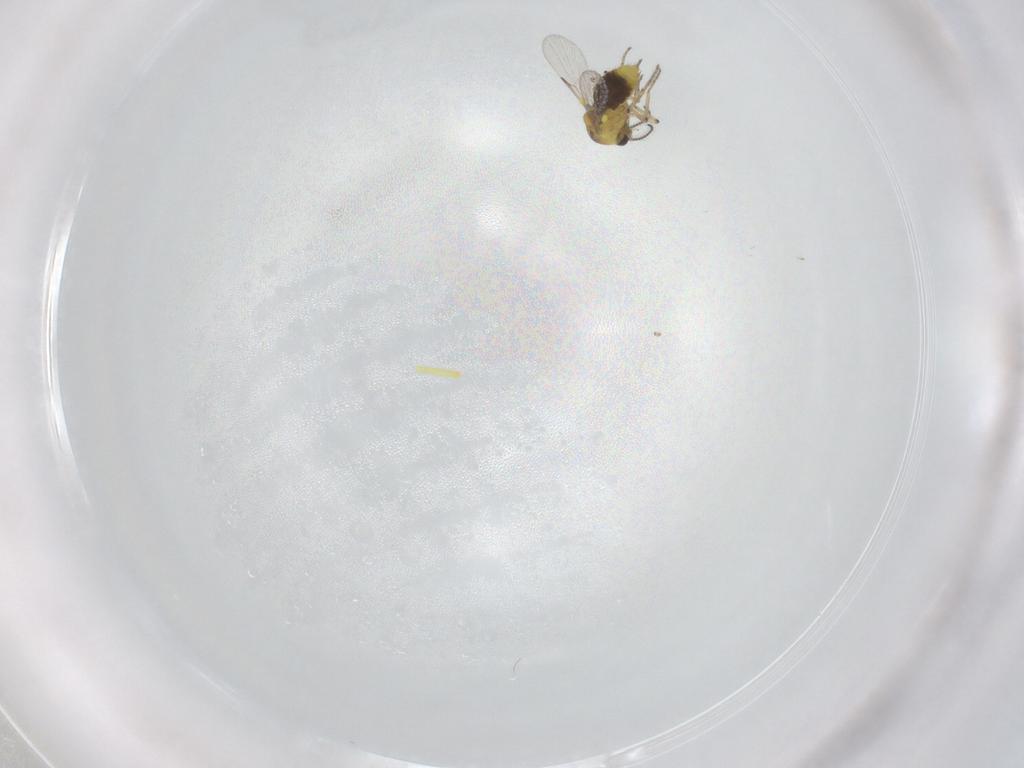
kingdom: Animalia
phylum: Arthropoda
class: Insecta
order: Diptera
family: Ceratopogonidae
